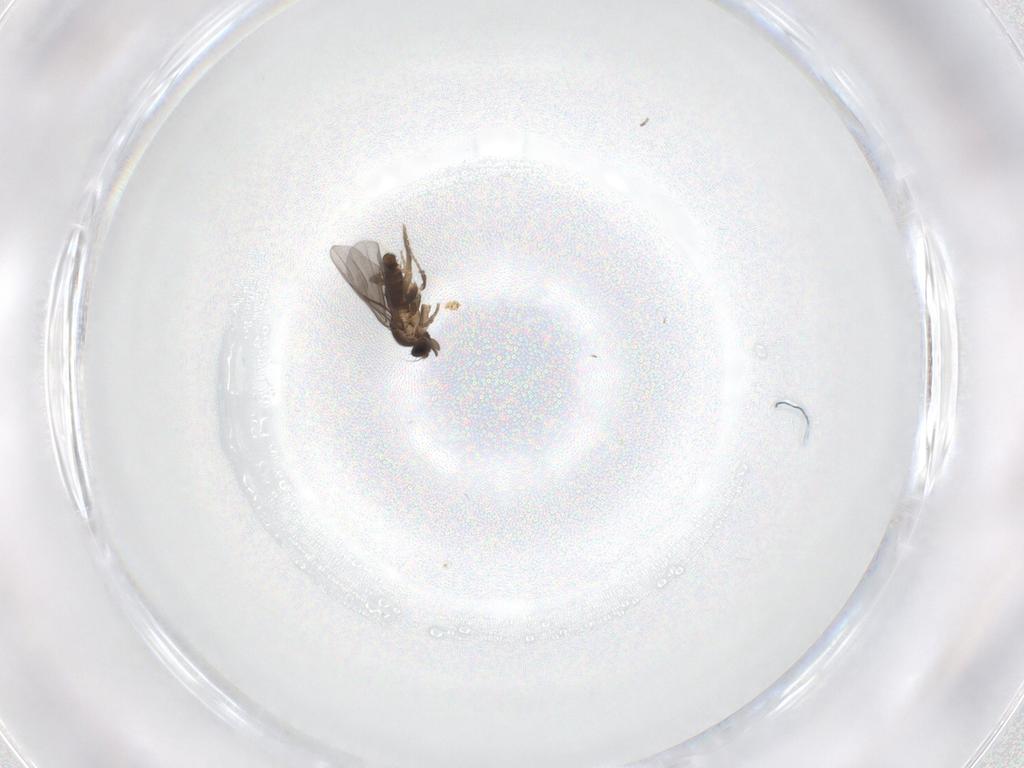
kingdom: Animalia
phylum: Arthropoda
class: Insecta
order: Diptera
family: Psychodidae
